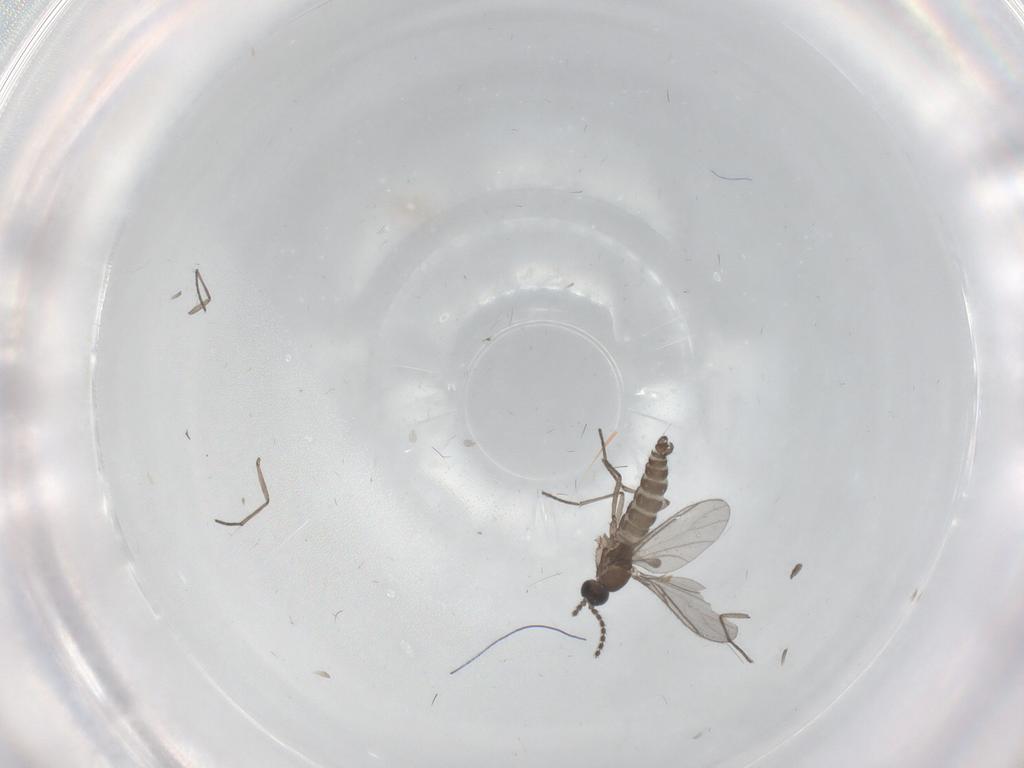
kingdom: Animalia
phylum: Arthropoda
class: Insecta
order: Diptera
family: Sciaridae
